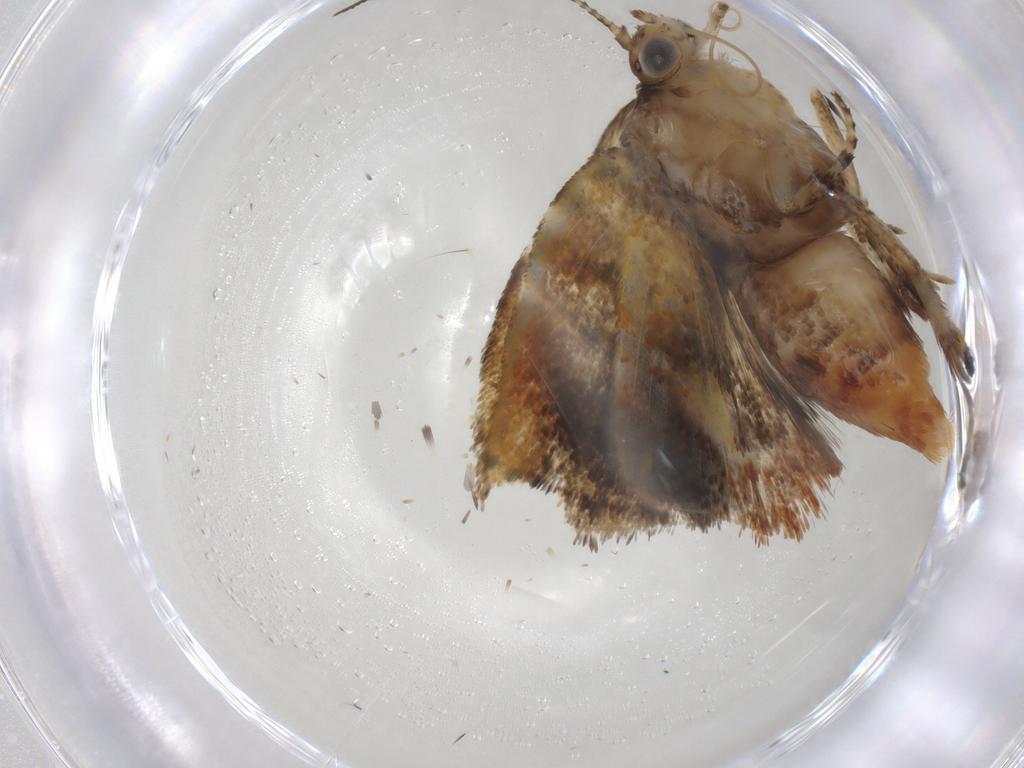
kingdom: Animalia
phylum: Arthropoda
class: Insecta
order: Lepidoptera
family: Choreutidae
